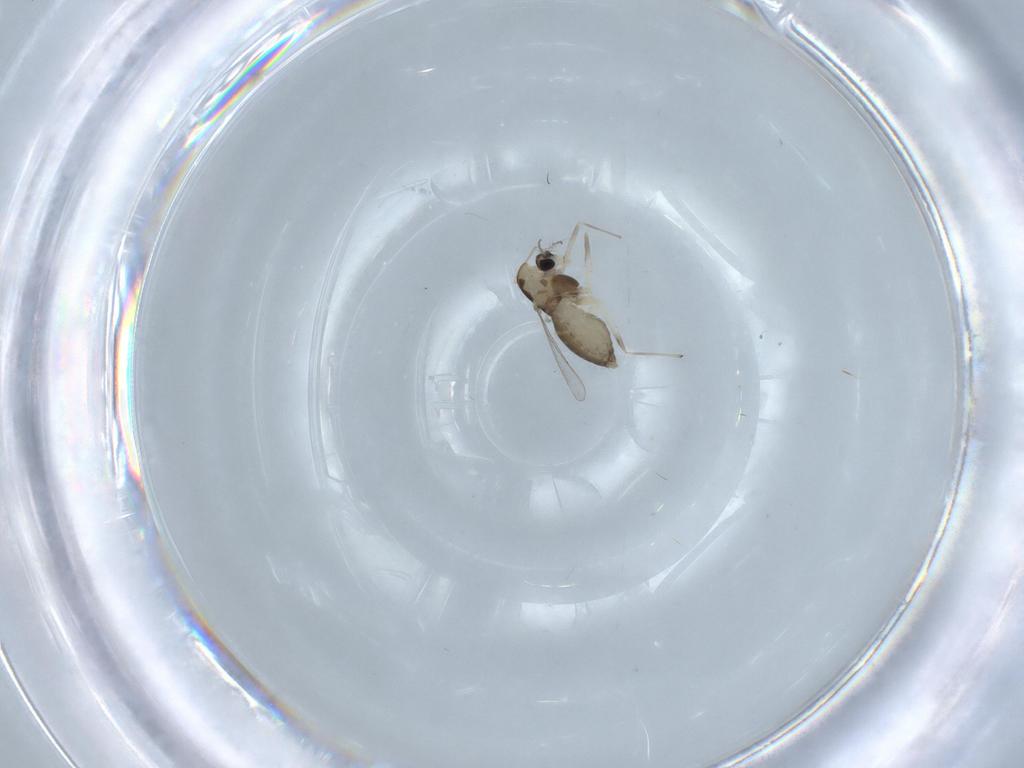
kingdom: Animalia
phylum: Arthropoda
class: Insecta
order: Diptera
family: Chironomidae
